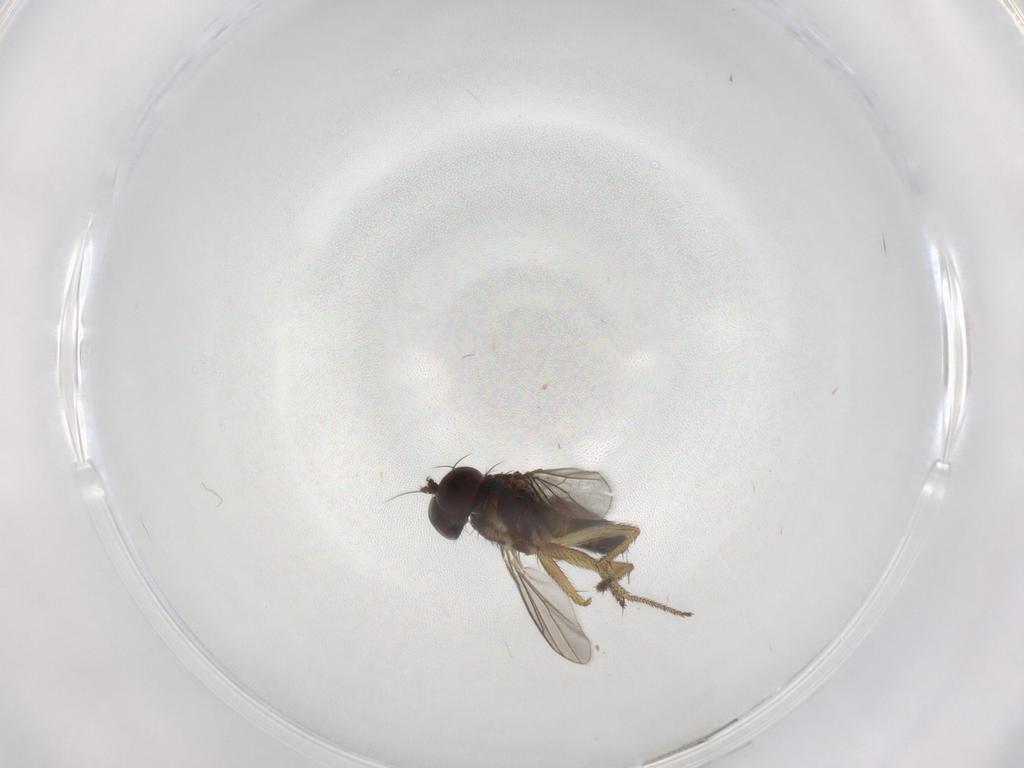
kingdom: Animalia
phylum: Arthropoda
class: Insecta
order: Diptera
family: Dolichopodidae
